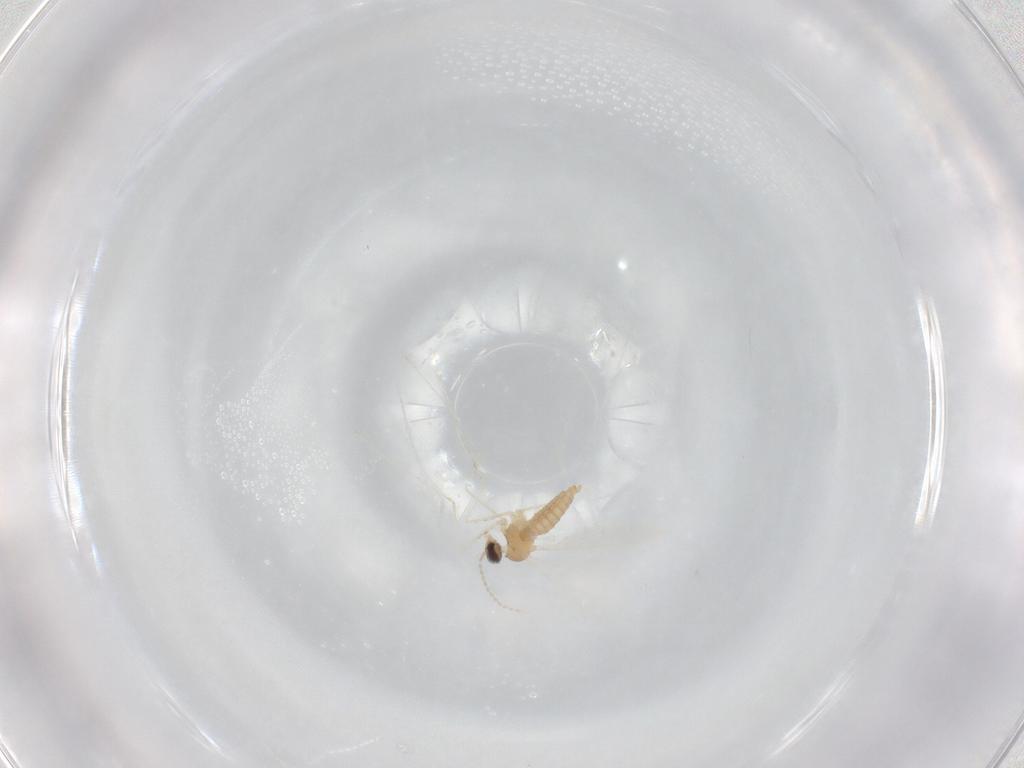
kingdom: Animalia
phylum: Arthropoda
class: Insecta
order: Diptera
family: Cecidomyiidae
